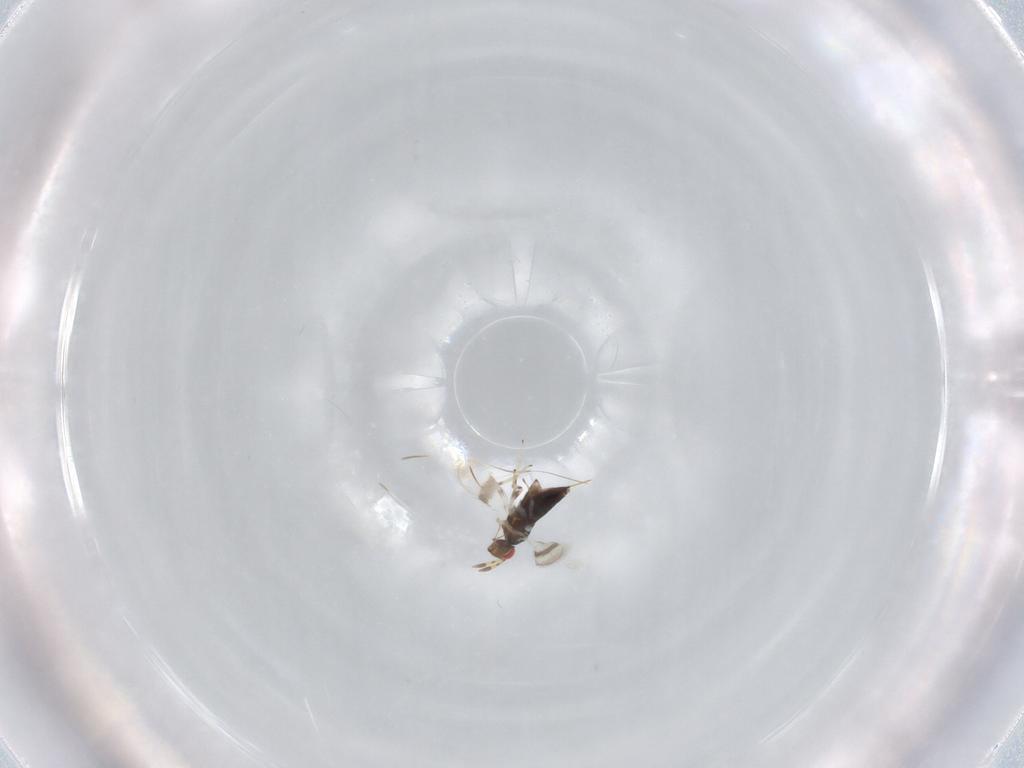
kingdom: Animalia
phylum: Arthropoda
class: Insecta
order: Hymenoptera
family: Azotidae
